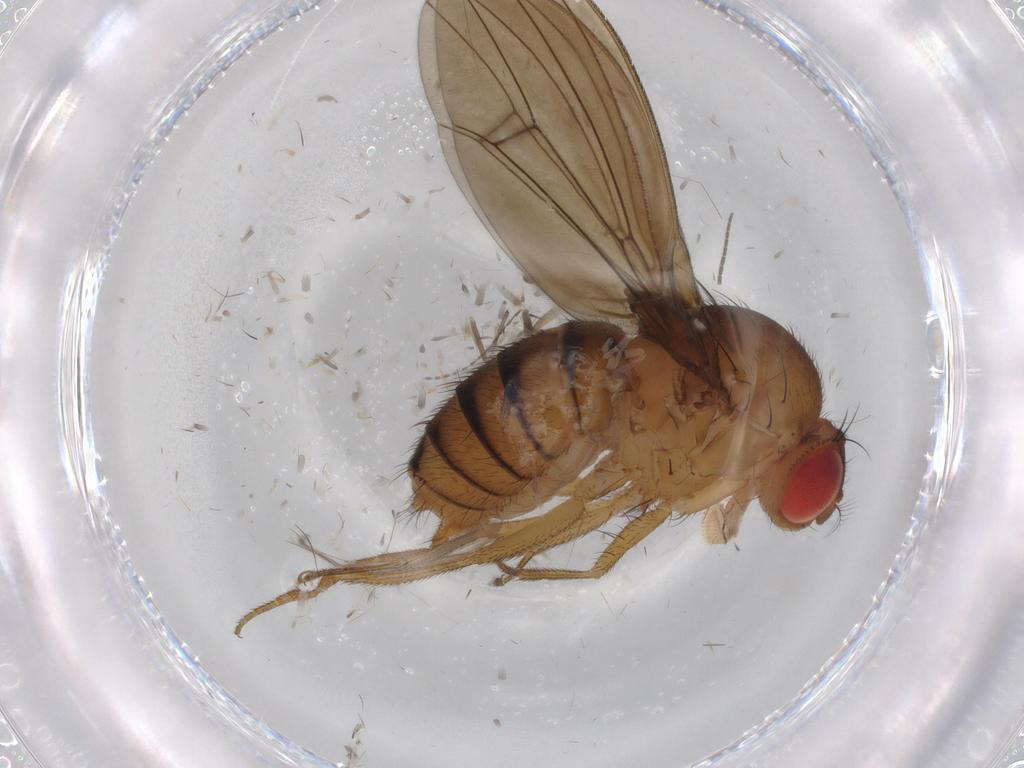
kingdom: Animalia
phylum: Arthropoda
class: Insecta
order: Diptera
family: Drosophilidae
